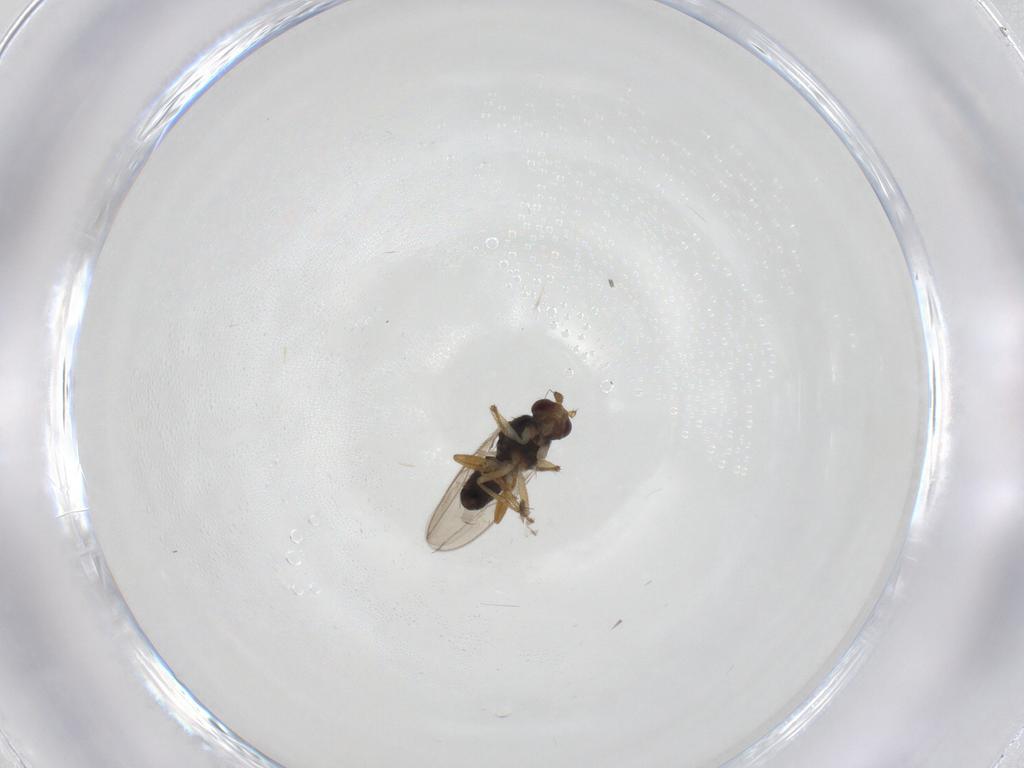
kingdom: Animalia
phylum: Arthropoda
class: Insecta
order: Diptera
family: Sphaeroceridae
